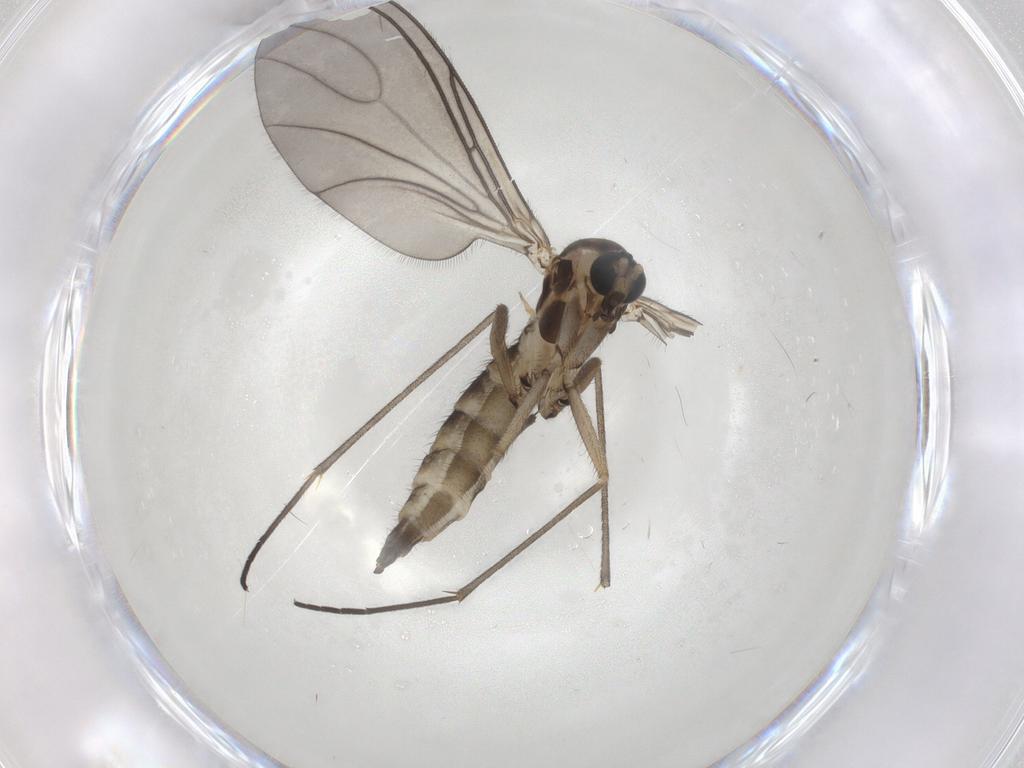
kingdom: Animalia
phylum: Arthropoda
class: Insecta
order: Diptera
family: Sciaridae
